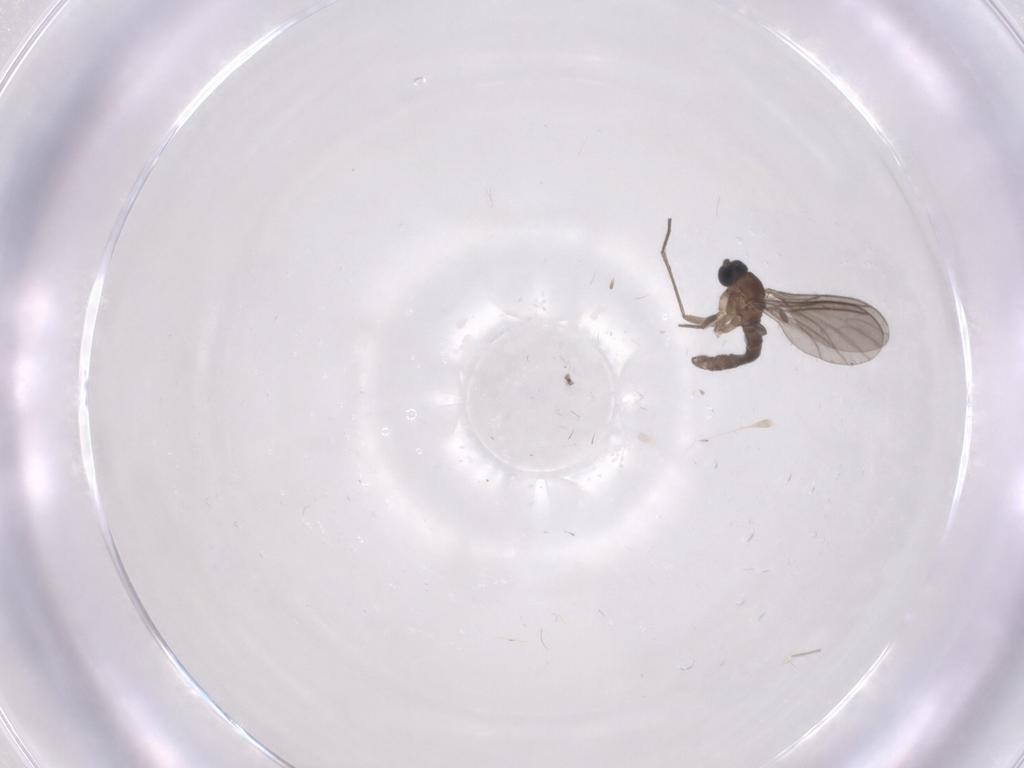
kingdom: Animalia
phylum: Arthropoda
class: Insecta
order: Diptera
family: Sciaridae
